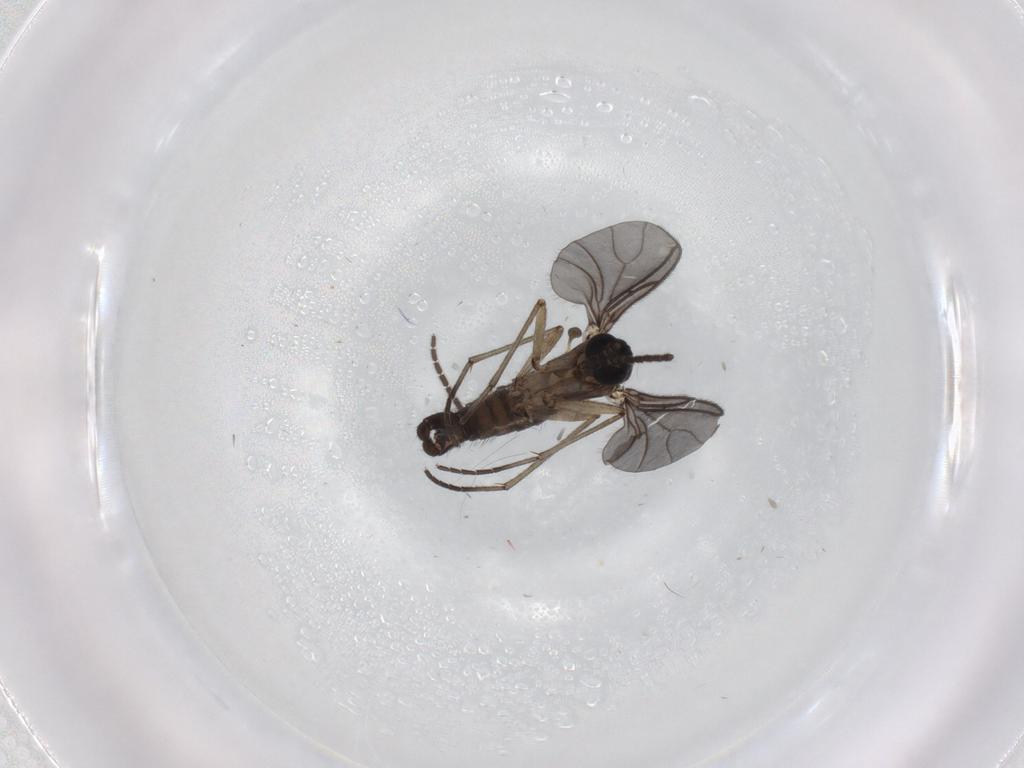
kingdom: Animalia
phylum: Arthropoda
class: Insecta
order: Diptera
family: Sciaridae
